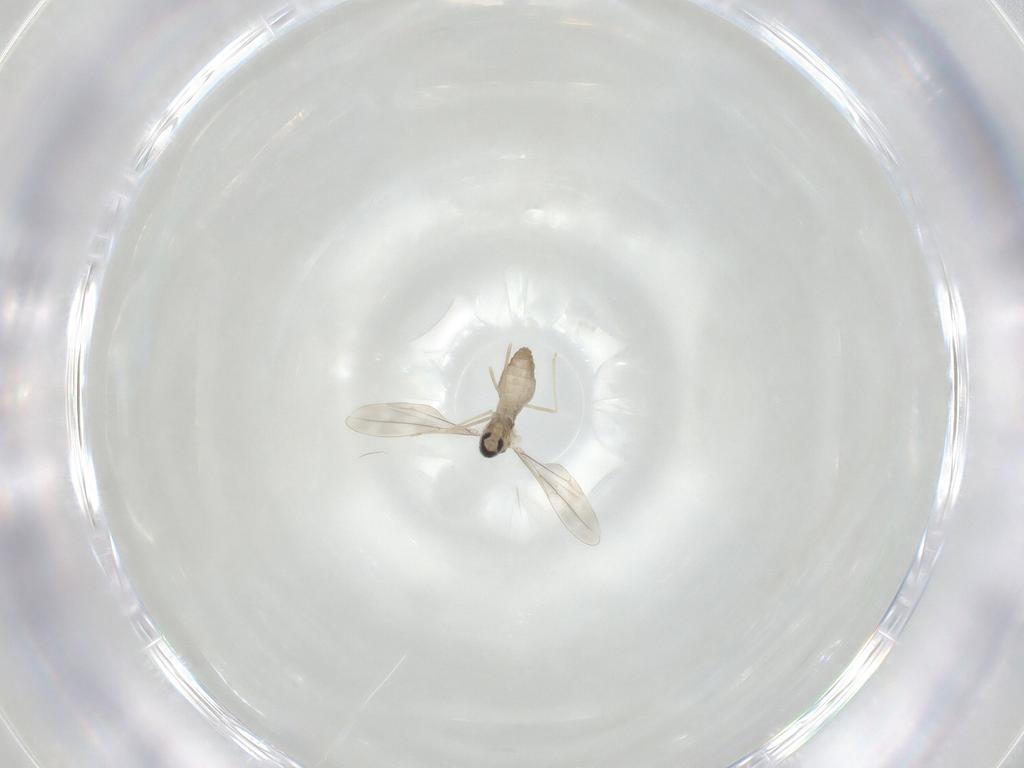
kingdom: Animalia
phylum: Arthropoda
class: Insecta
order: Diptera
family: Cecidomyiidae
